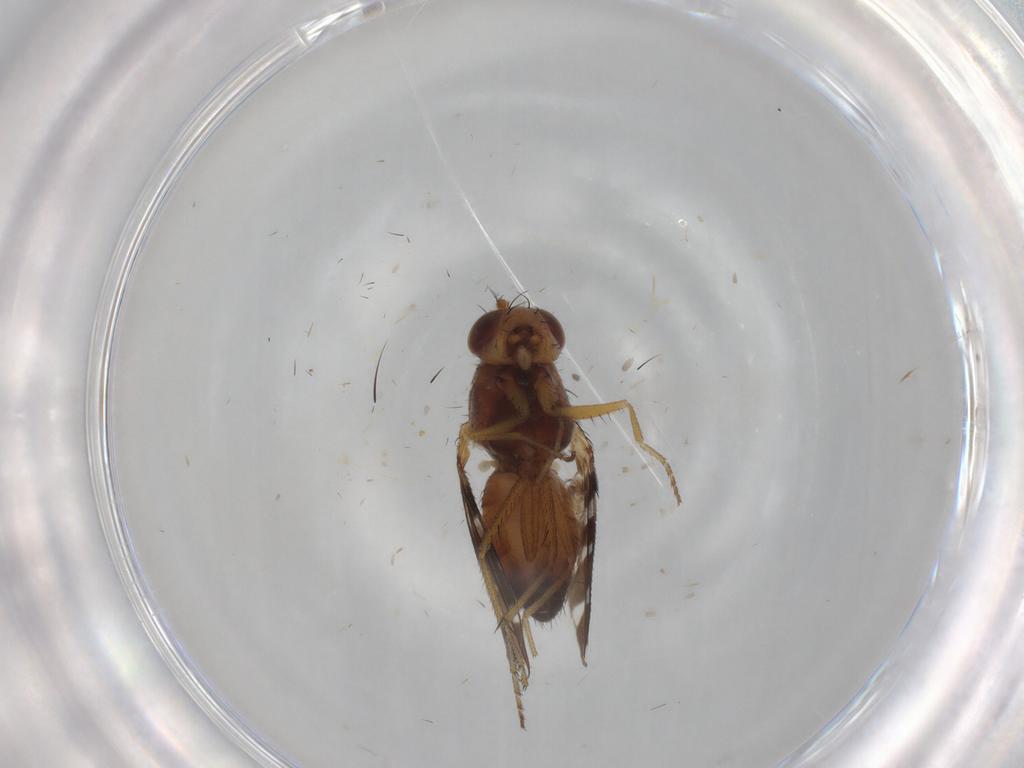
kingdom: Animalia
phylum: Arthropoda
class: Insecta
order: Diptera
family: Ephydridae
